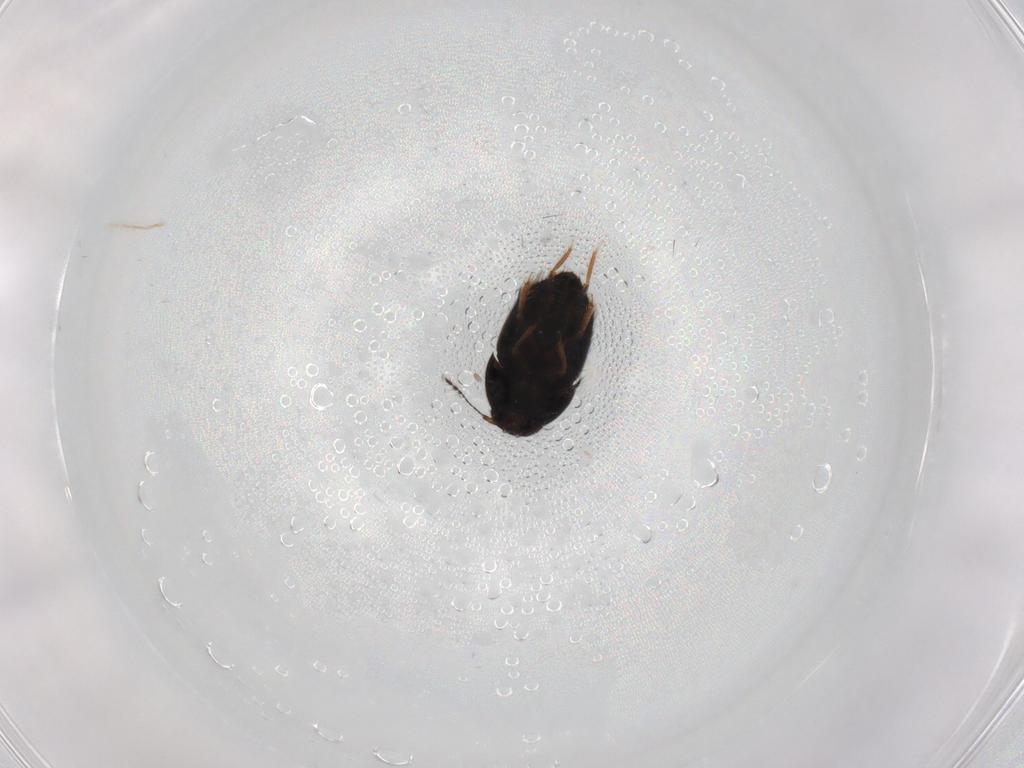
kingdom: Animalia
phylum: Arthropoda
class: Insecta
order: Coleoptera
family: Ptiliidae
